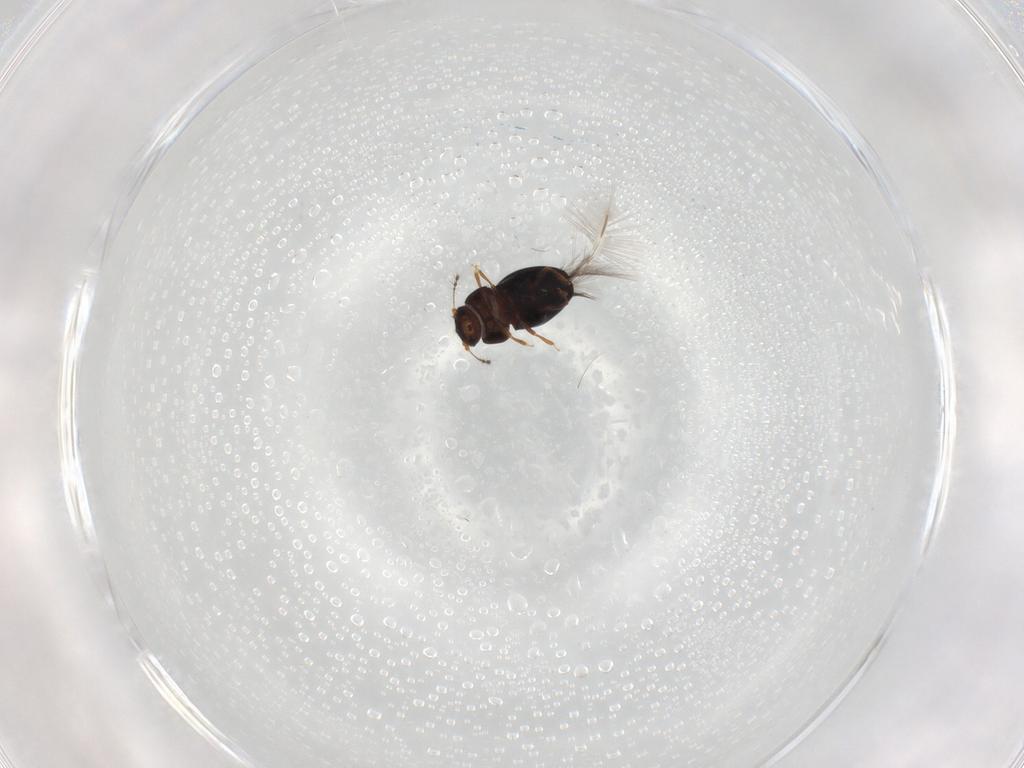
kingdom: Animalia
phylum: Arthropoda
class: Insecta
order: Coleoptera
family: Ptiliidae
